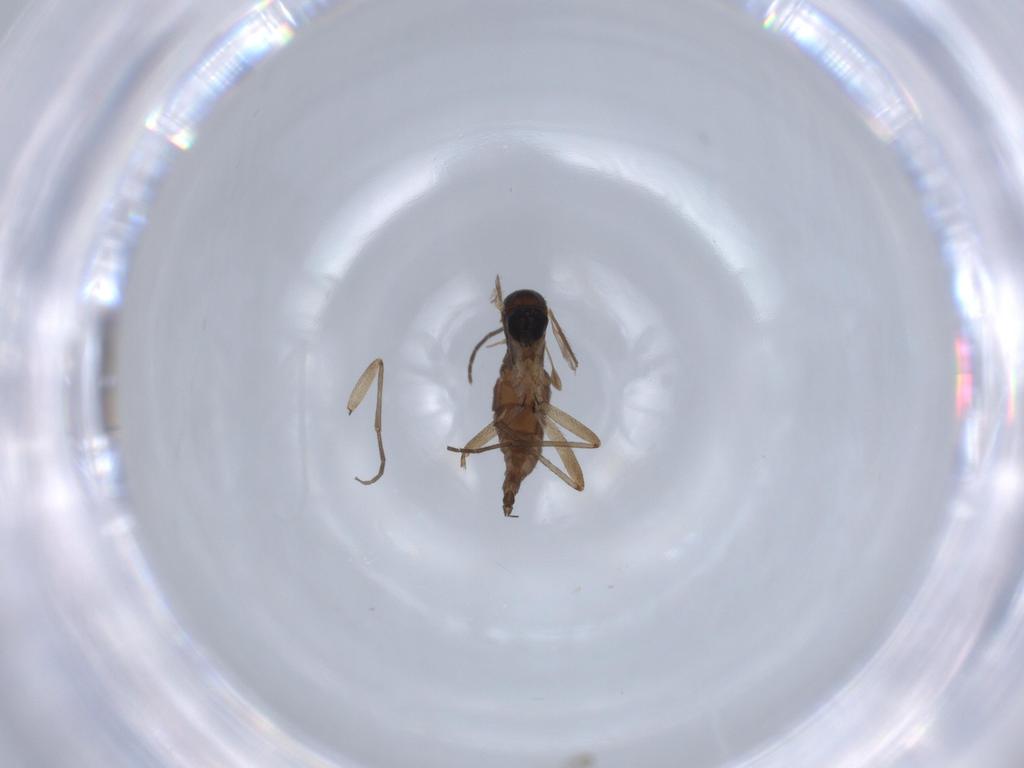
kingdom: Animalia
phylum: Arthropoda
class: Insecta
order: Diptera
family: Sciaridae
